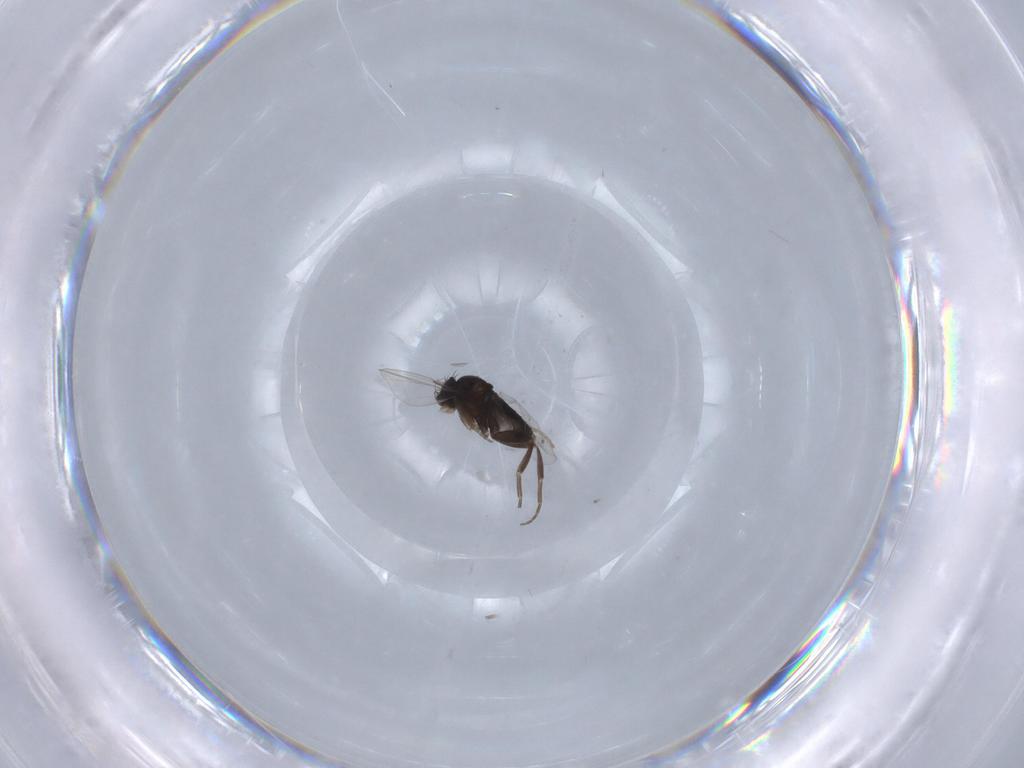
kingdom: Animalia
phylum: Arthropoda
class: Insecta
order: Diptera
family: Phoridae
